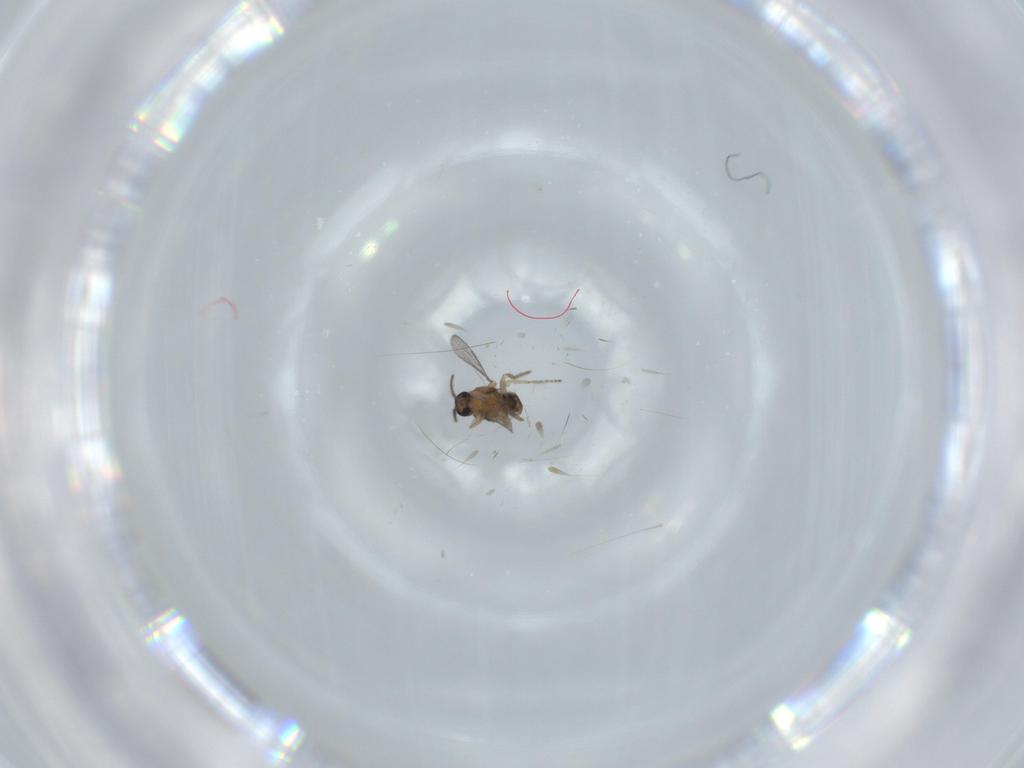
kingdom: Animalia
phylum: Arthropoda
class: Insecta
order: Diptera
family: Ceratopogonidae
